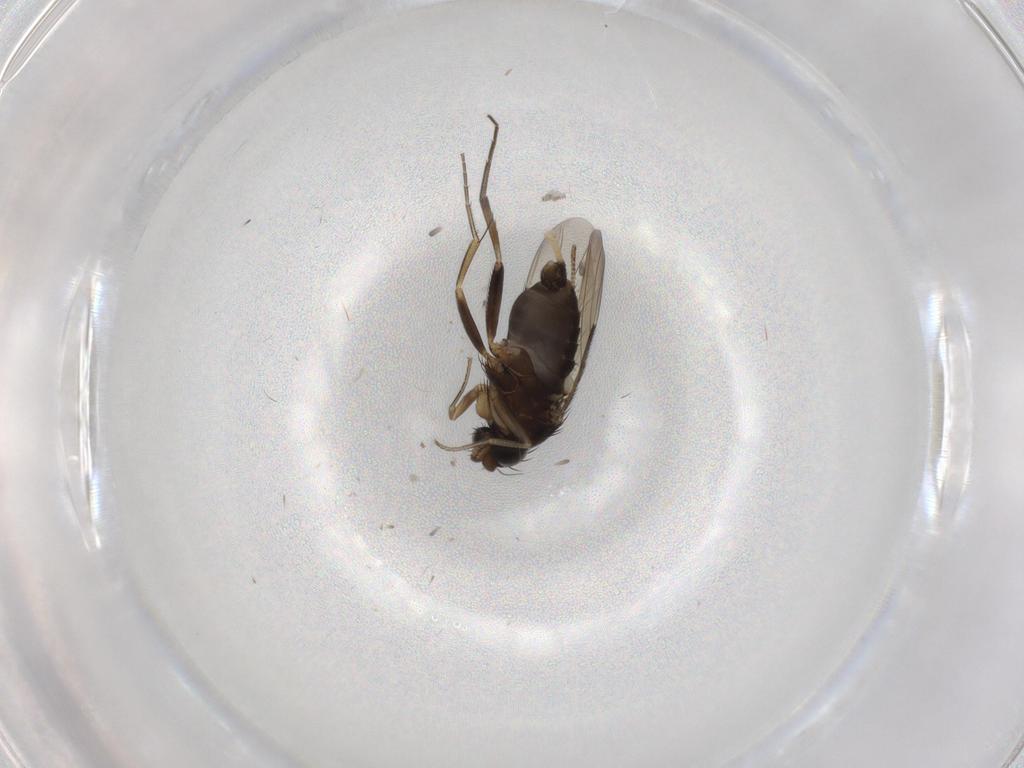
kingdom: Animalia
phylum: Arthropoda
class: Insecta
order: Diptera
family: Phoridae
